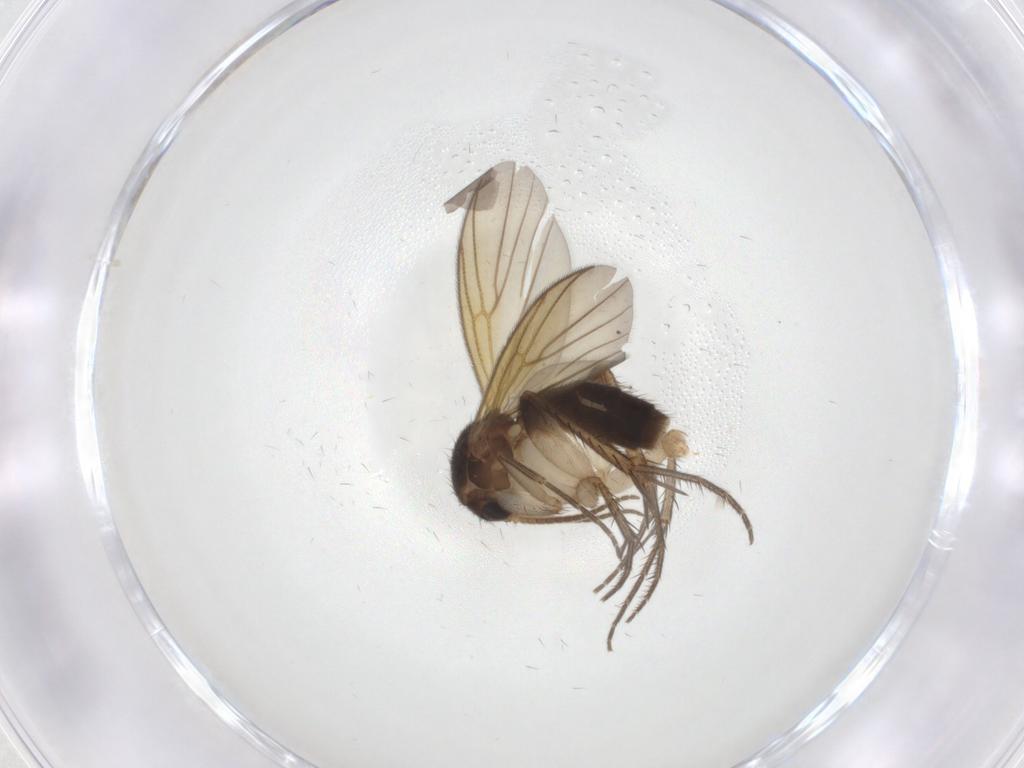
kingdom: Animalia
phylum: Arthropoda
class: Insecta
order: Diptera
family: Mycetophilidae
